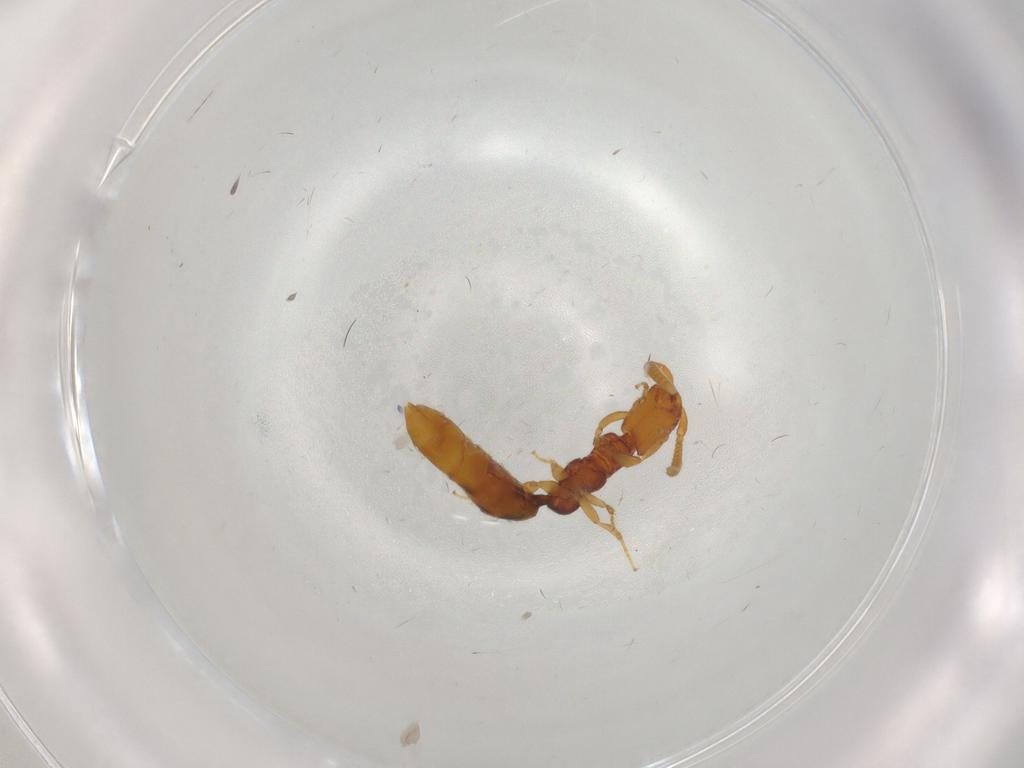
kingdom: Animalia
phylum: Arthropoda
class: Insecta
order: Hymenoptera
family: Bethylidae
